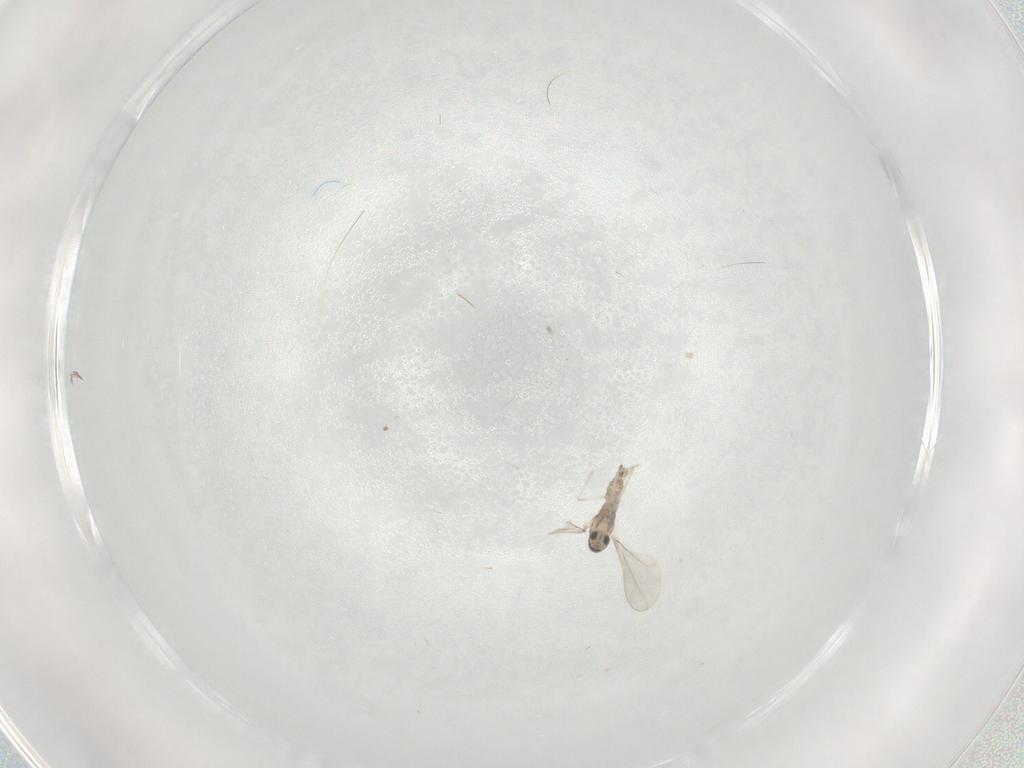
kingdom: Animalia
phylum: Arthropoda
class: Insecta
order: Diptera
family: Cecidomyiidae
